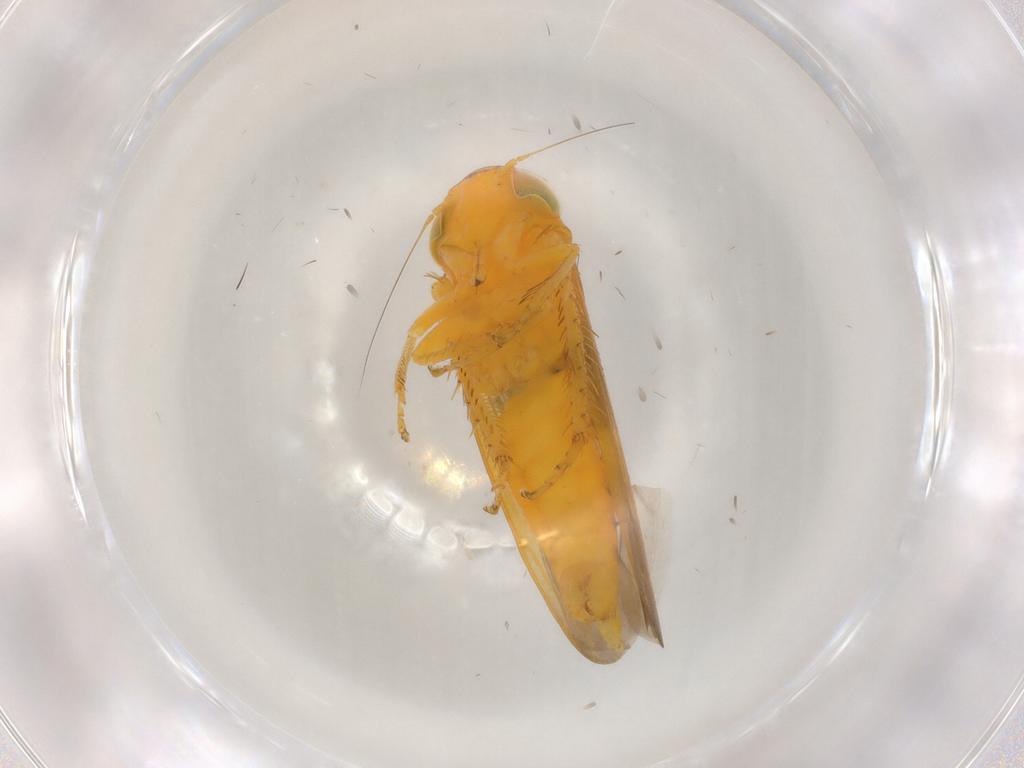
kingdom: Animalia
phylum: Arthropoda
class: Insecta
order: Hemiptera
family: Cicadellidae
